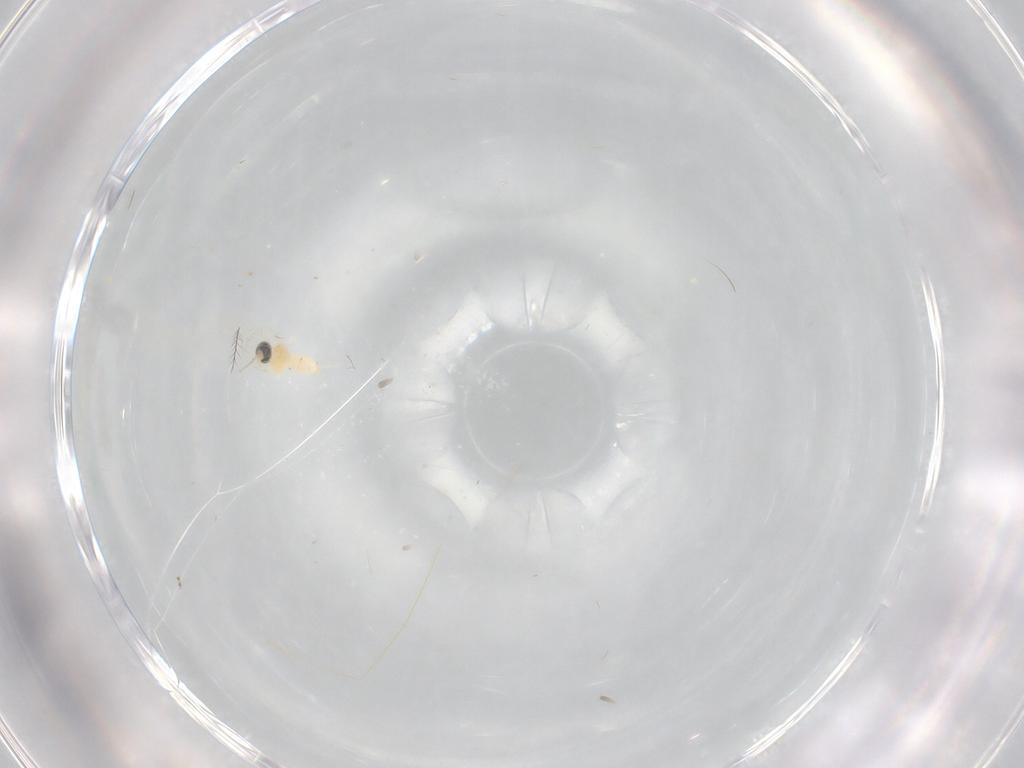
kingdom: Animalia
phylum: Arthropoda
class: Insecta
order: Diptera
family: Cecidomyiidae
